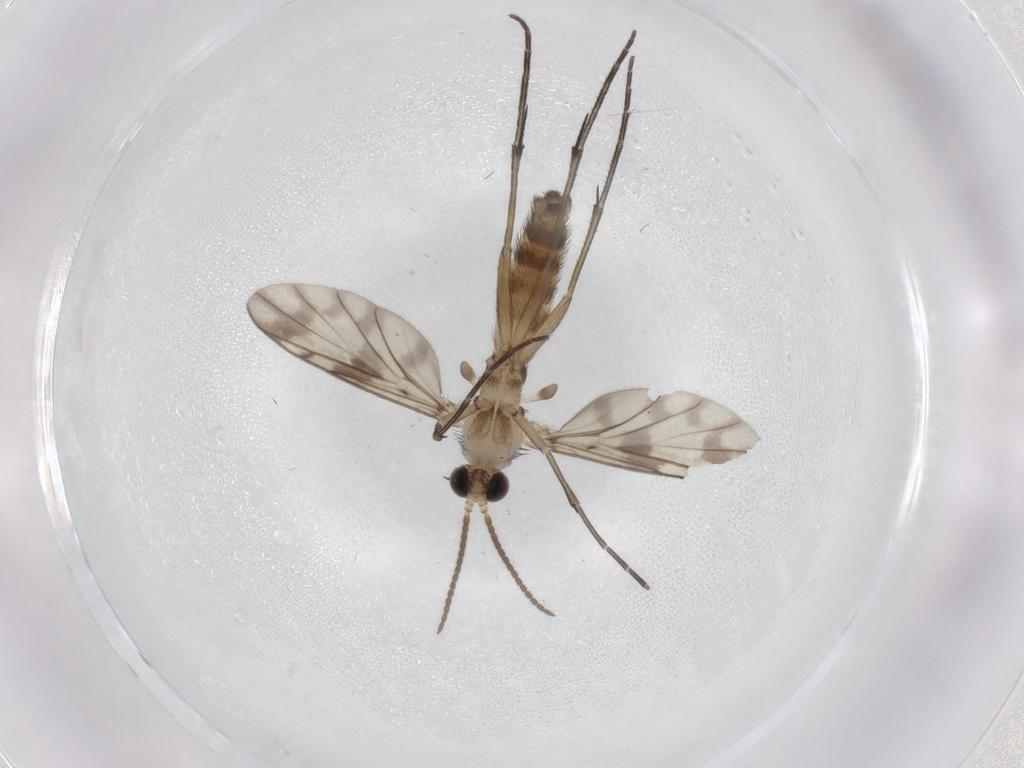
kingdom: Animalia
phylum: Arthropoda
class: Insecta
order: Diptera
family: Keroplatidae
